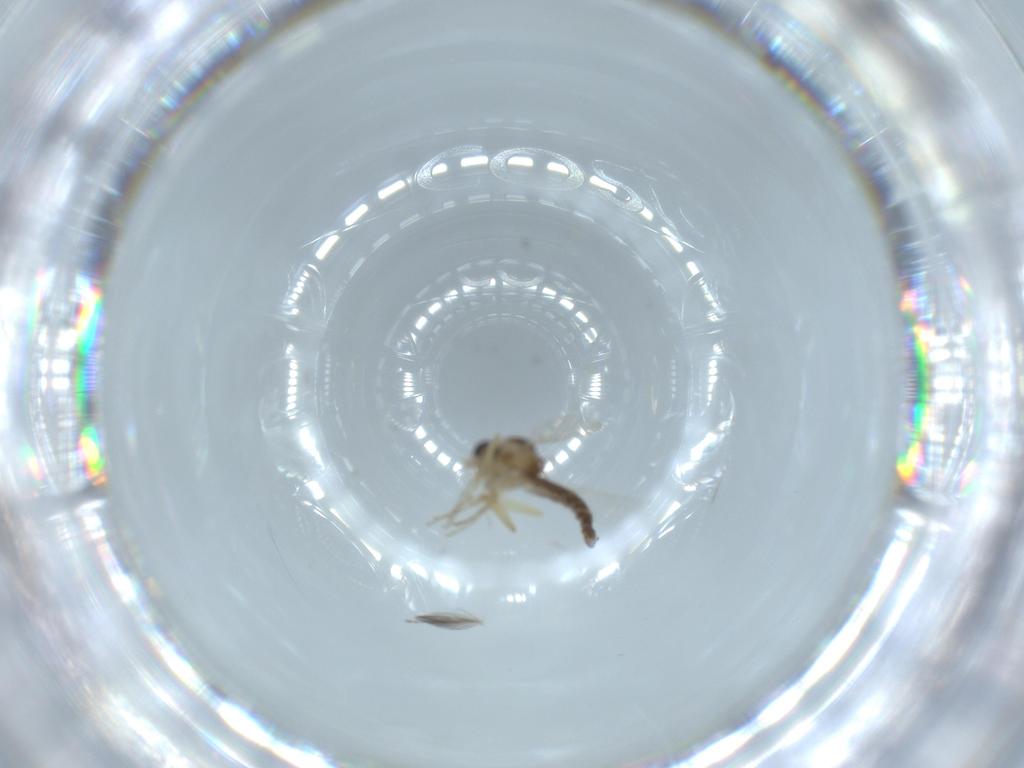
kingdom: Animalia
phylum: Arthropoda
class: Insecta
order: Diptera
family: Ceratopogonidae
